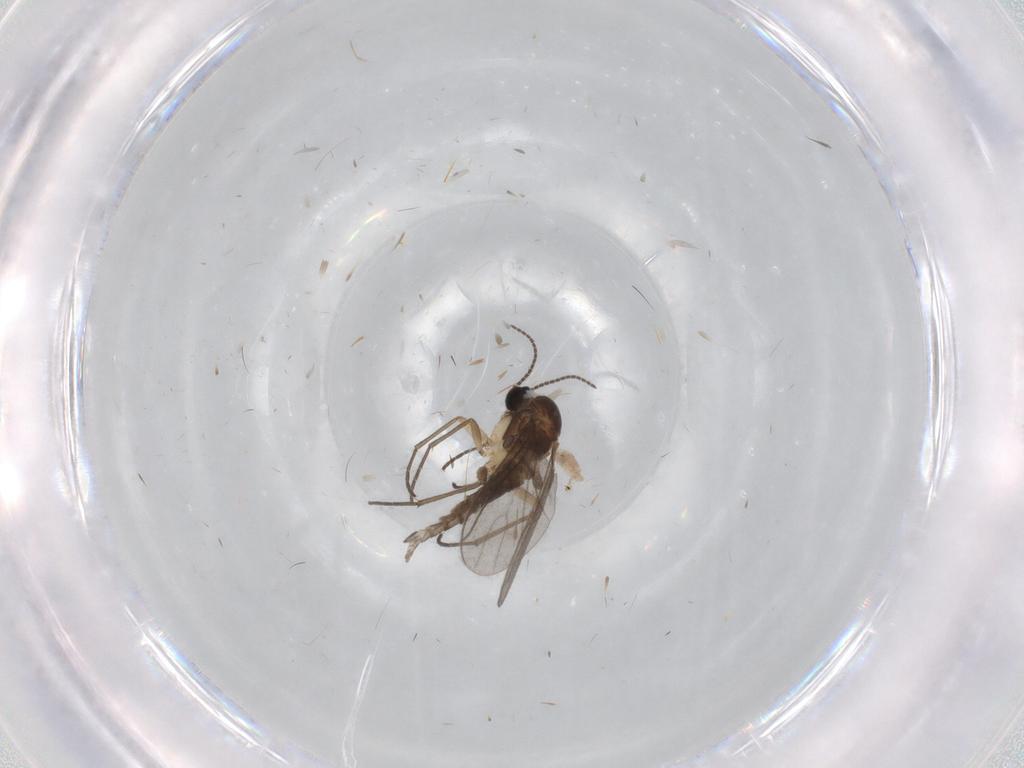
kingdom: Animalia
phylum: Arthropoda
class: Insecta
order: Diptera
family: Sciaridae
